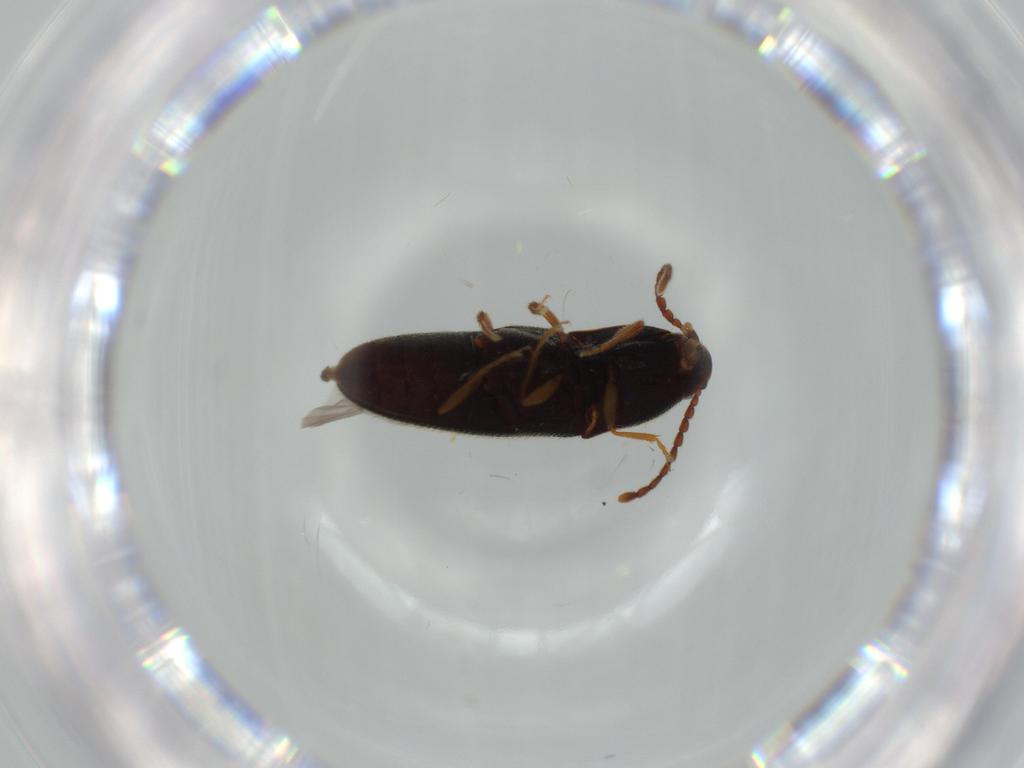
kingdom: Animalia
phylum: Arthropoda
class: Insecta
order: Coleoptera
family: Elateridae
